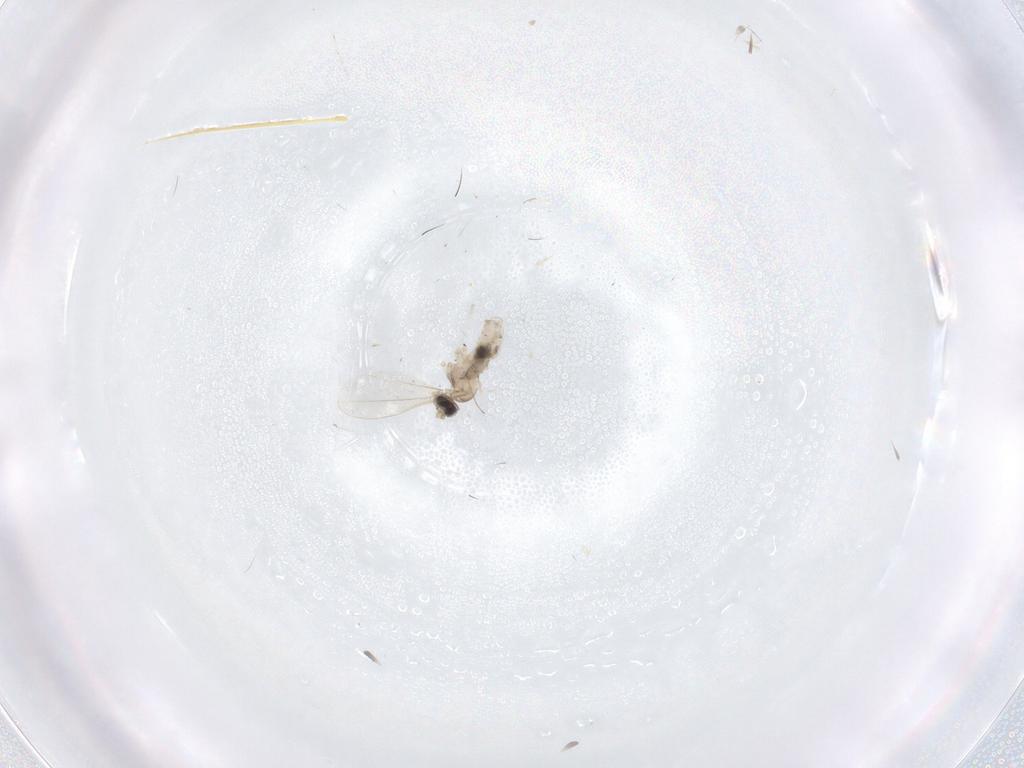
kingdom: Animalia
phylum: Arthropoda
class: Insecta
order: Diptera
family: Cecidomyiidae
